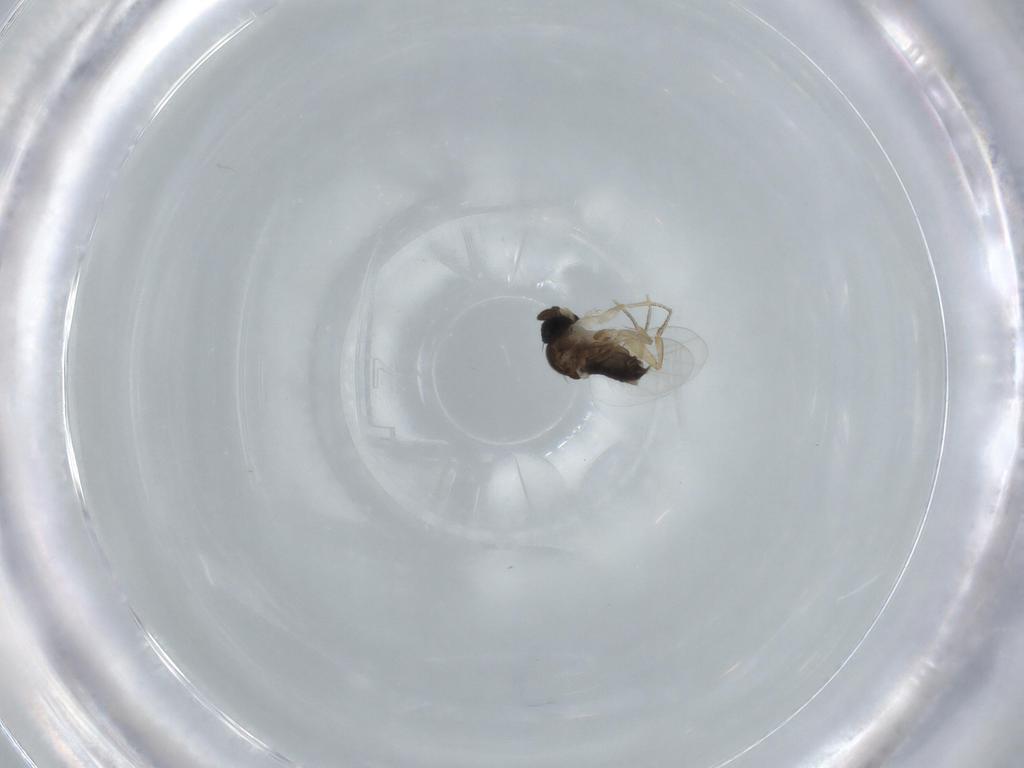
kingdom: Animalia
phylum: Arthropoda
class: Insecta
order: Diptera
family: Phoridae
